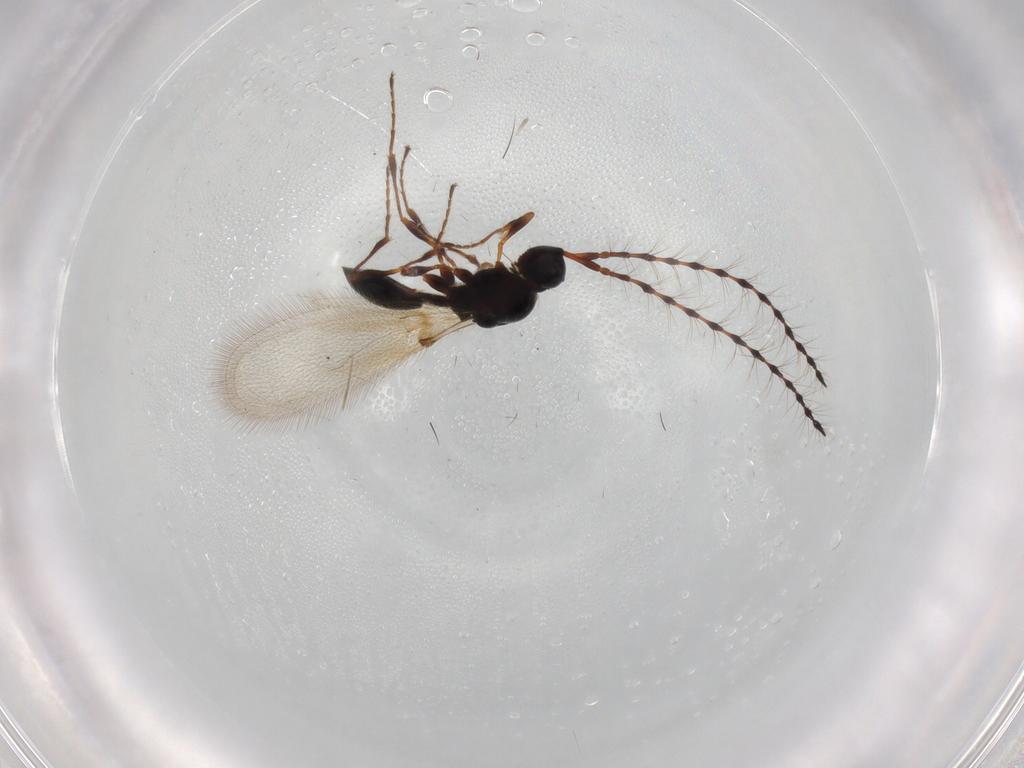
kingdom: Animalia
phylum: Arthropoda
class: Insecta
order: Hymenoptera
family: Diapriidae
